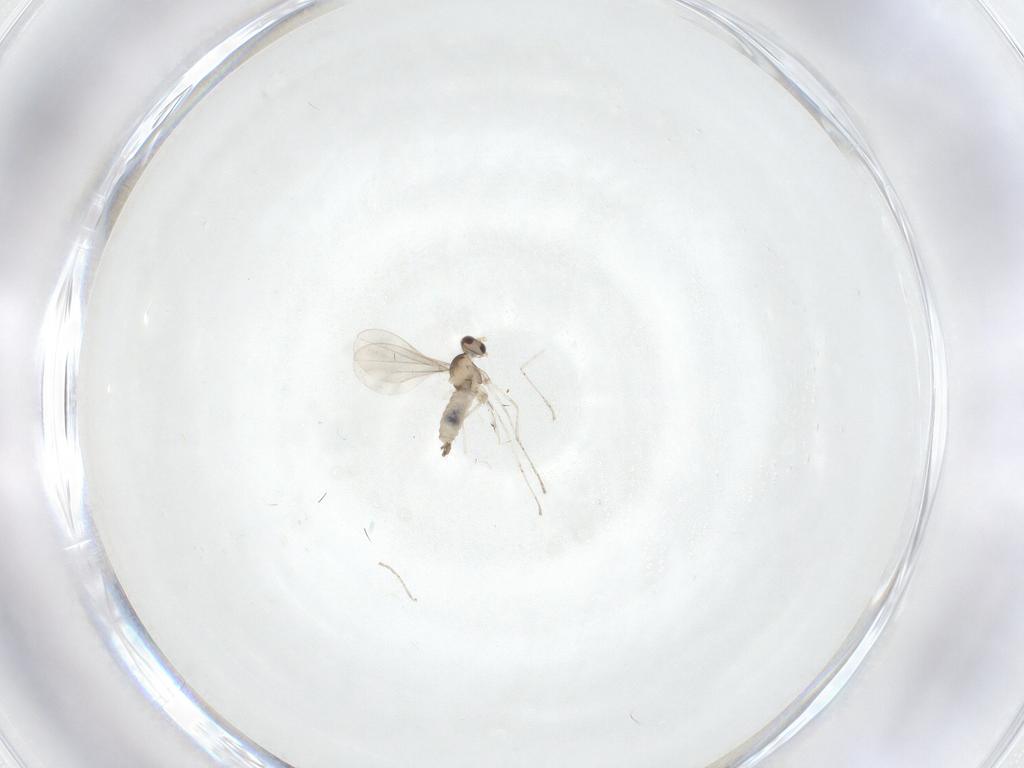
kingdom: Animalia
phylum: Arthropoda
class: Insecta
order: Diptera
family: Cecidomyiidae
